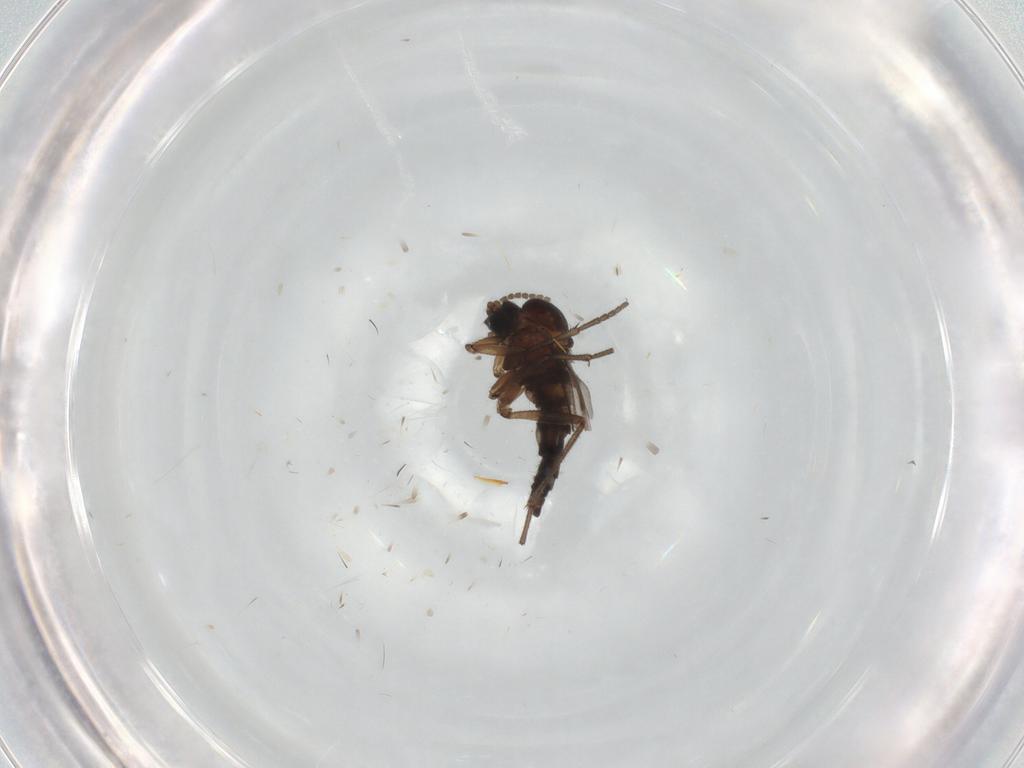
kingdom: Animalia
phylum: Arthropoda
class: Insecta
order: Diptera
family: Sciaridae
